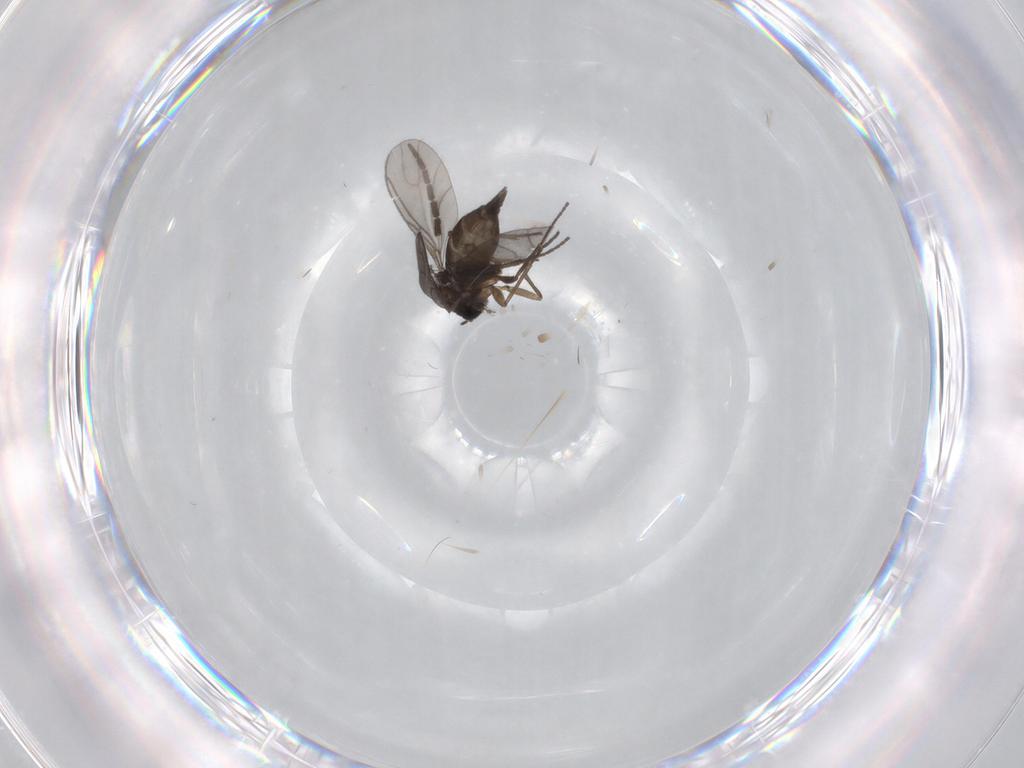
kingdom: Animalia
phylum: Arthropoda
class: Insecta
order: Diptera
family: Sciaridae
